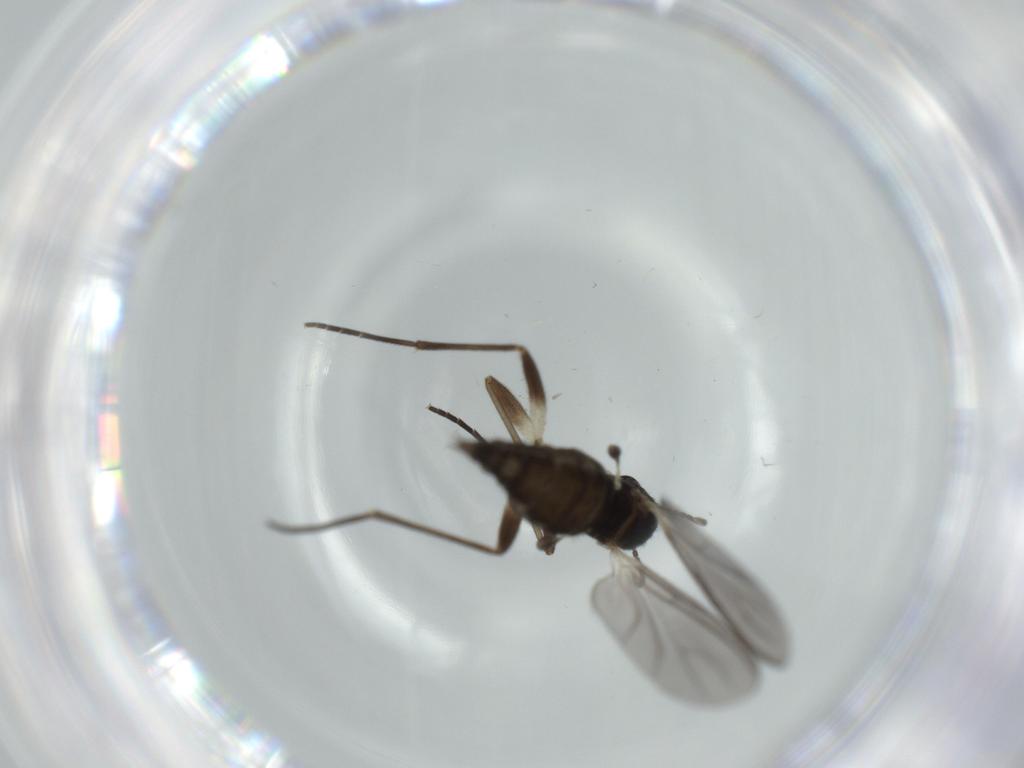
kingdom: Animalia
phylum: Arthropoda
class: Insecta
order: Diptera
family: Sciaridae
